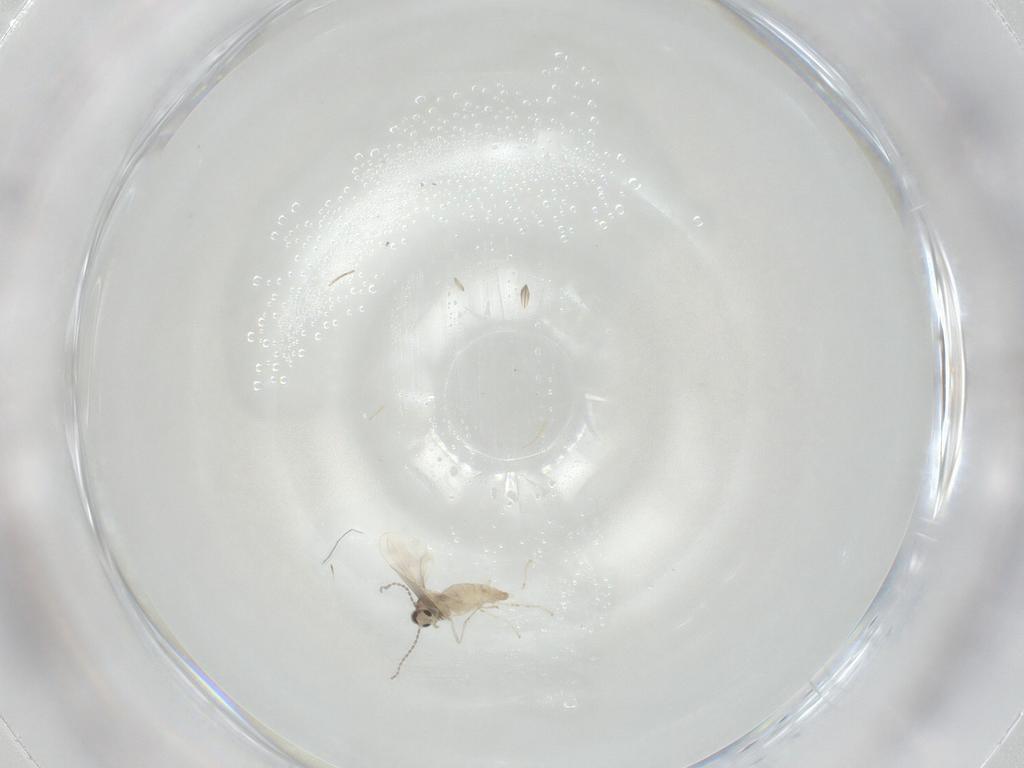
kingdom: Animalia
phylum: Arthropoda
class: Insecta
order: Diptera
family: Cecidomyiidae
